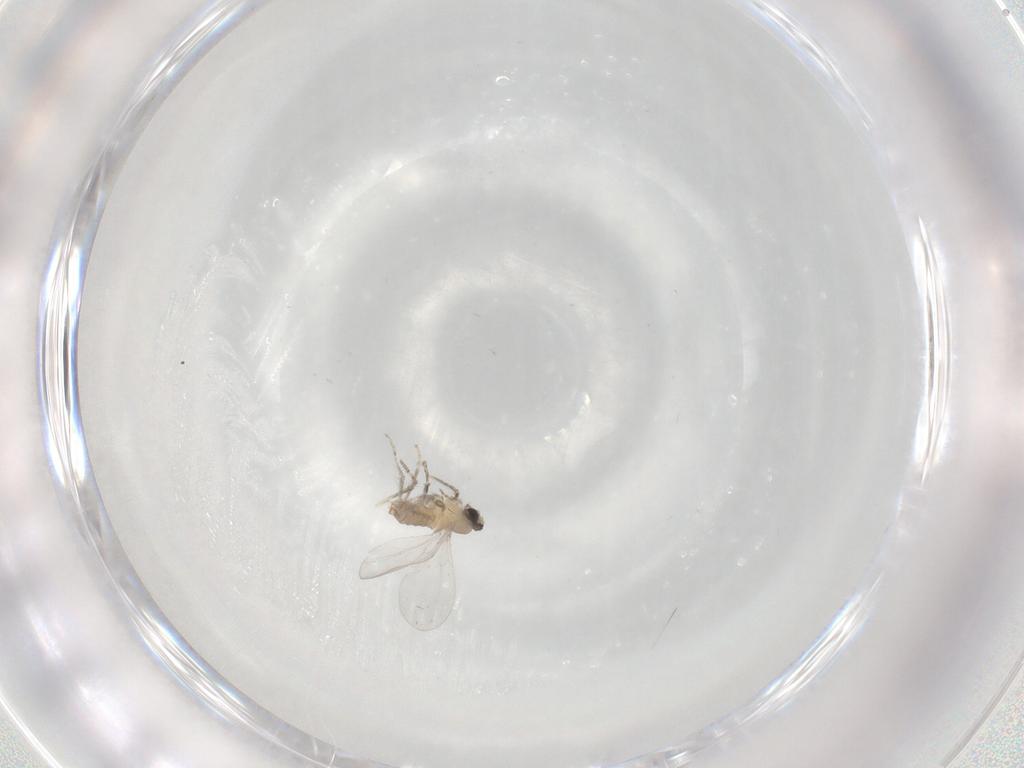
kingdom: Animalia
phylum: Arthropoda
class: Insecta
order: Diptera
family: Cecidomyiidae
